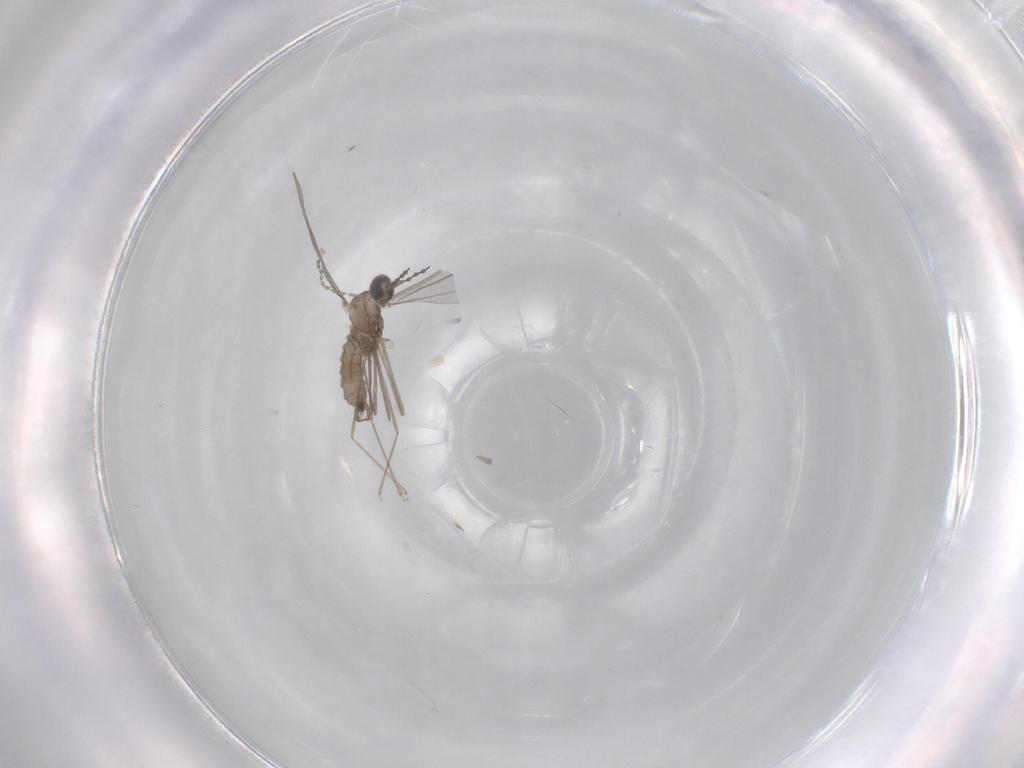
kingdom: Animalia
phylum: Arthropoda
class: Insecta
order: Diptera
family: Cecidomyiidae
